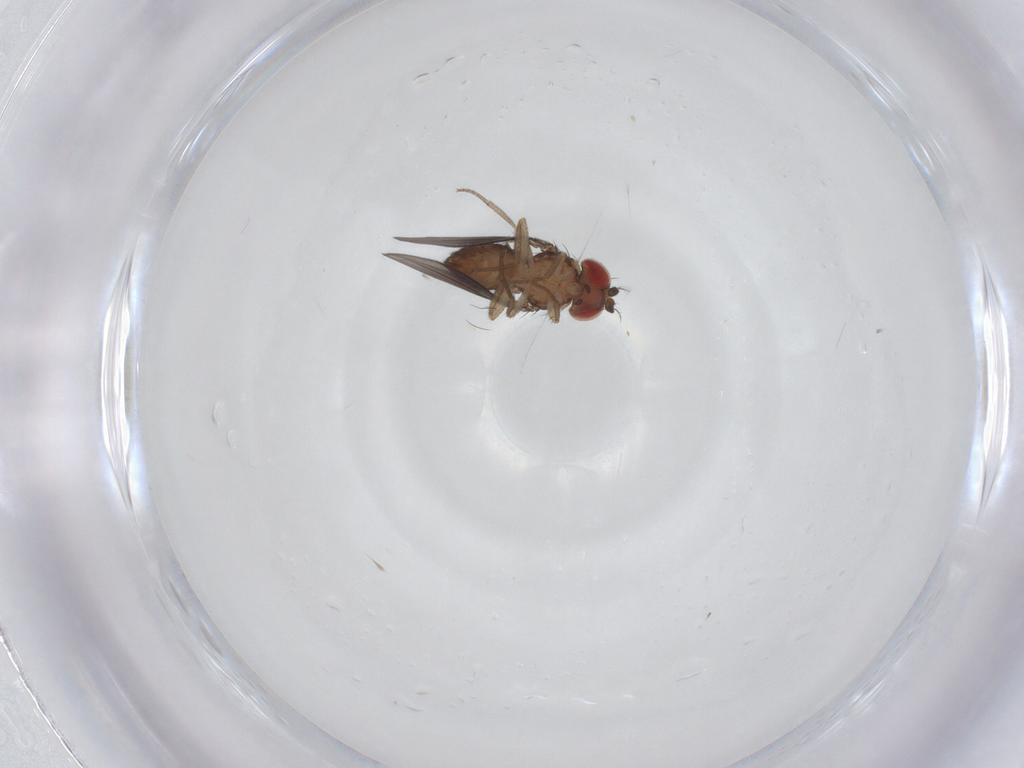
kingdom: Animalia
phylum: Arthropoda
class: Insecta
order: Diptera
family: Drosophilidae
